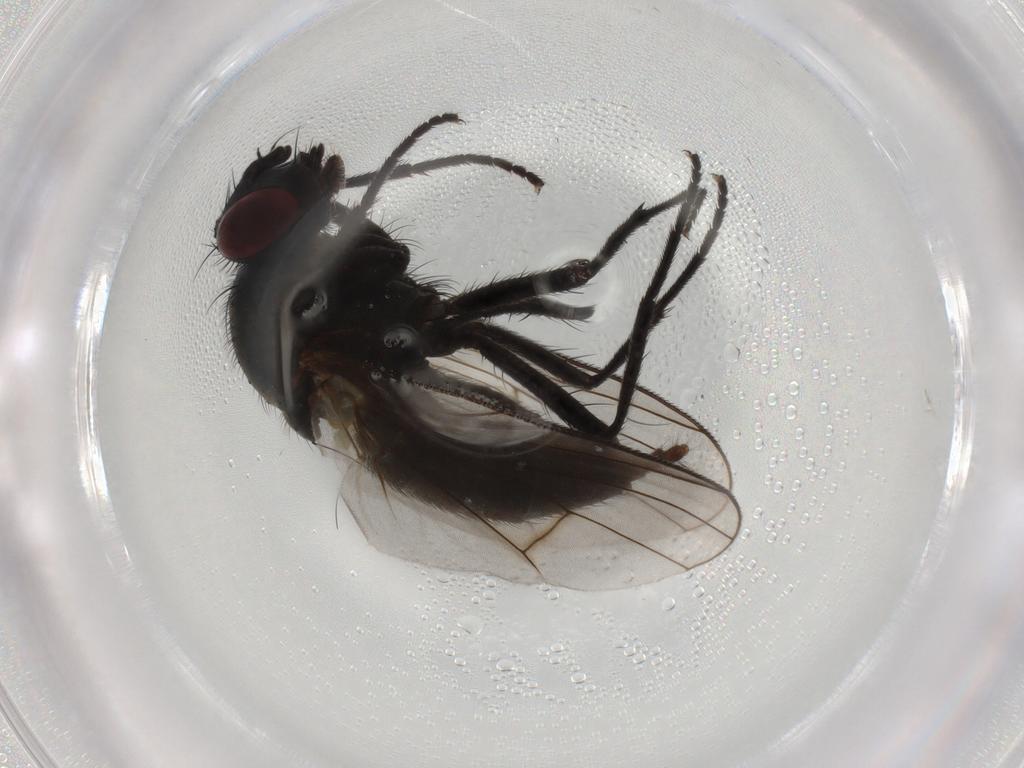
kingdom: Animalia
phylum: Arthropoda
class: Insecta
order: Diptera
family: Muscidae
